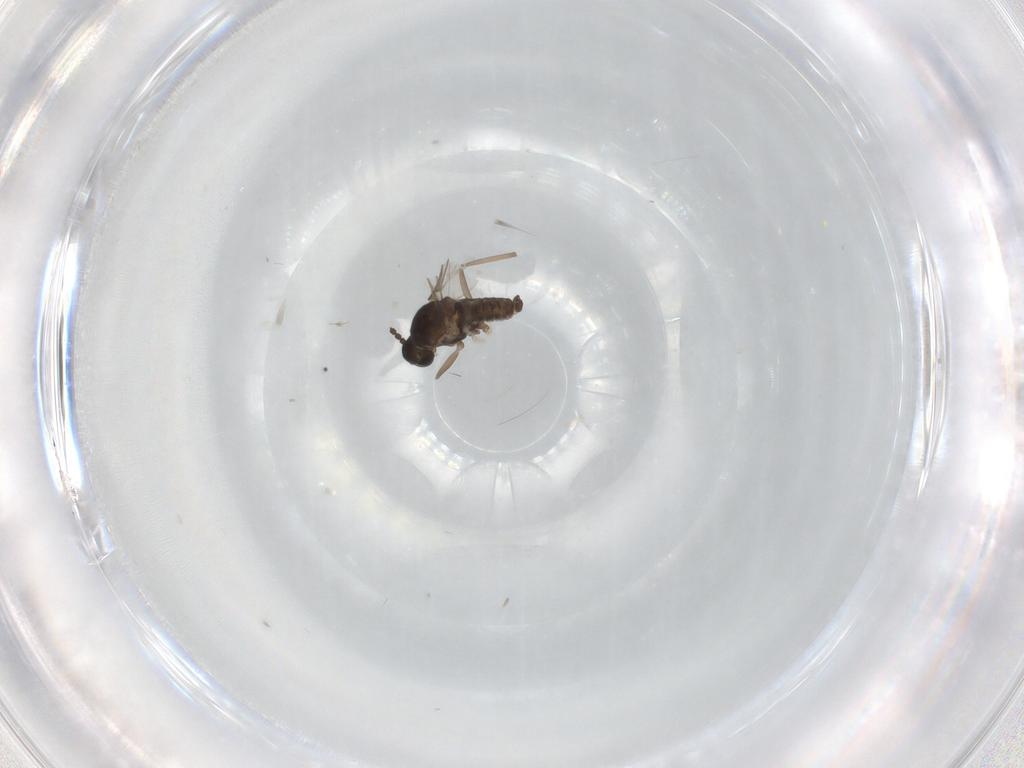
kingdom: Animalia
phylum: Arthropoda
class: Insecta
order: Diptera
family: Cecidomyiidae
